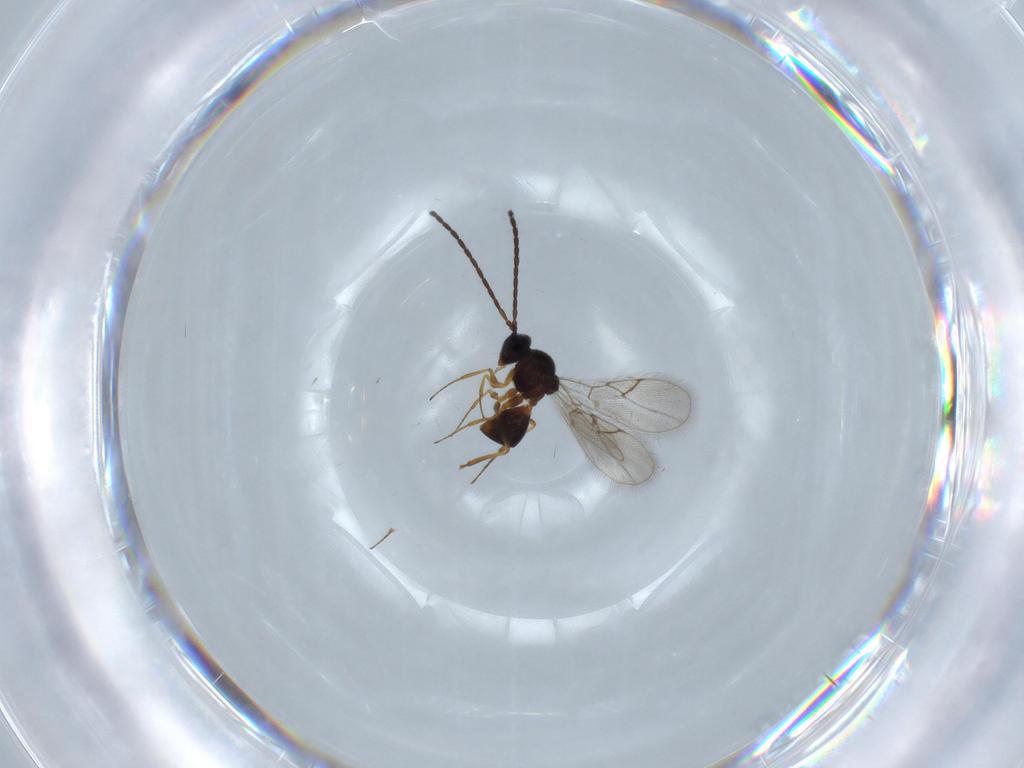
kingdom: Animalia
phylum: Arthropoda
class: Insecta
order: Hymenoptera
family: Figitidae
